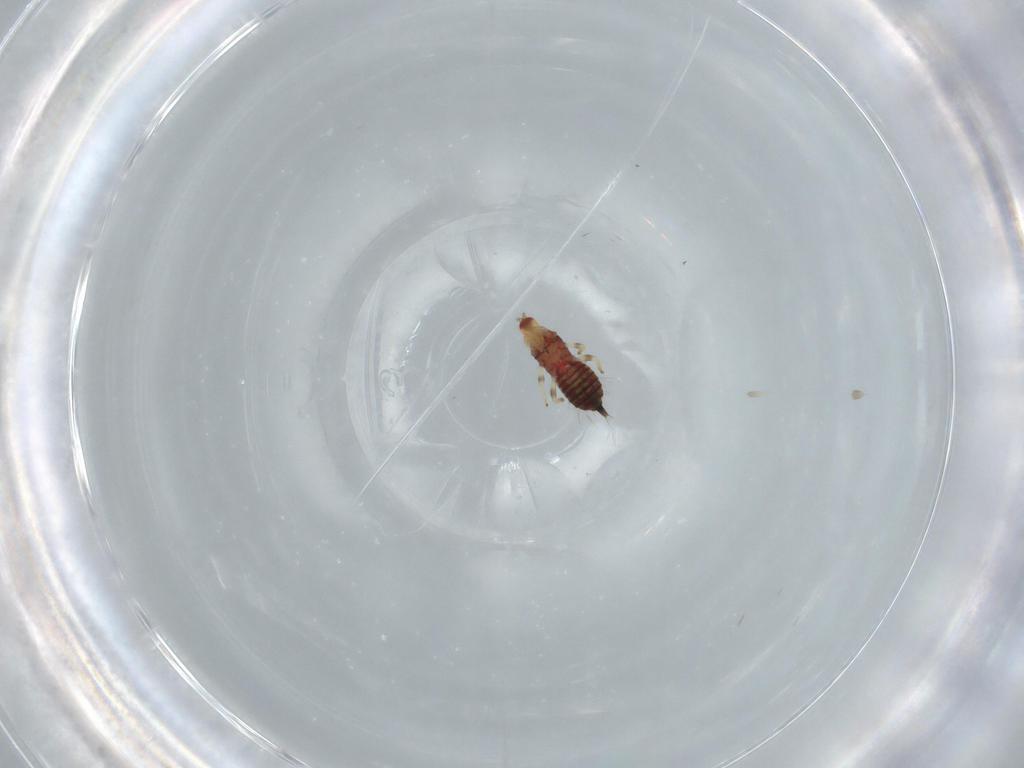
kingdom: Animalia
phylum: Arthropoda
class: Insecta
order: Thysanoptera
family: Phlaeothripidae
